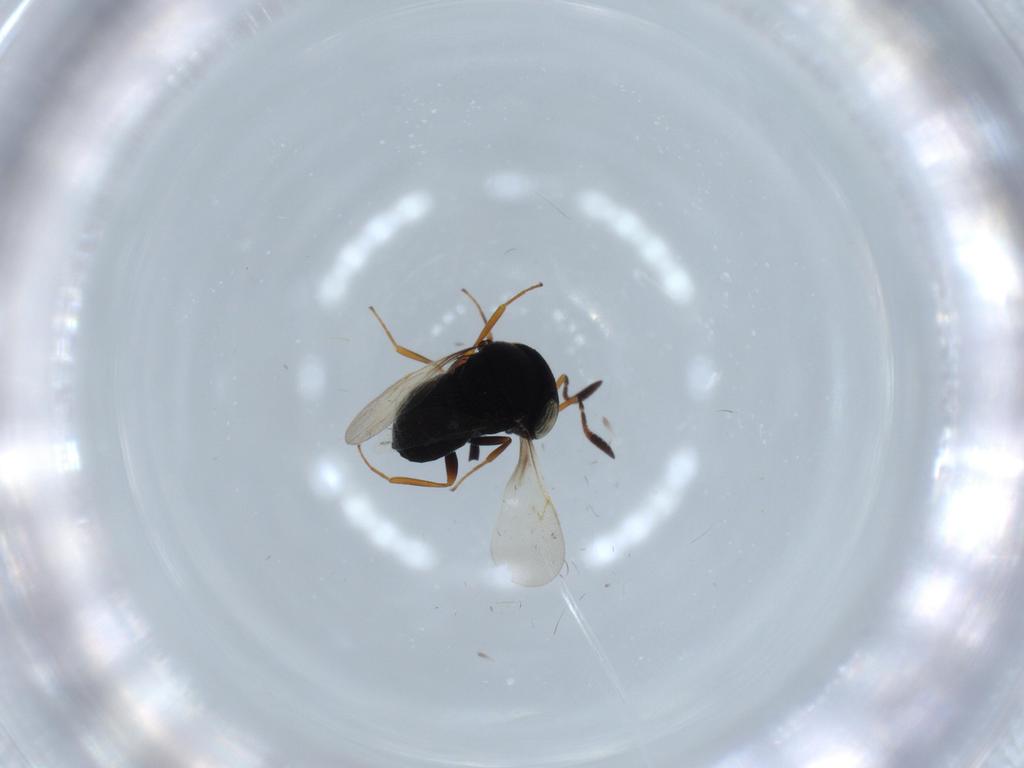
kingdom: Animalia
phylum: Arthropoda
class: Insecta
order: Hymenoptera
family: Scelionidae
